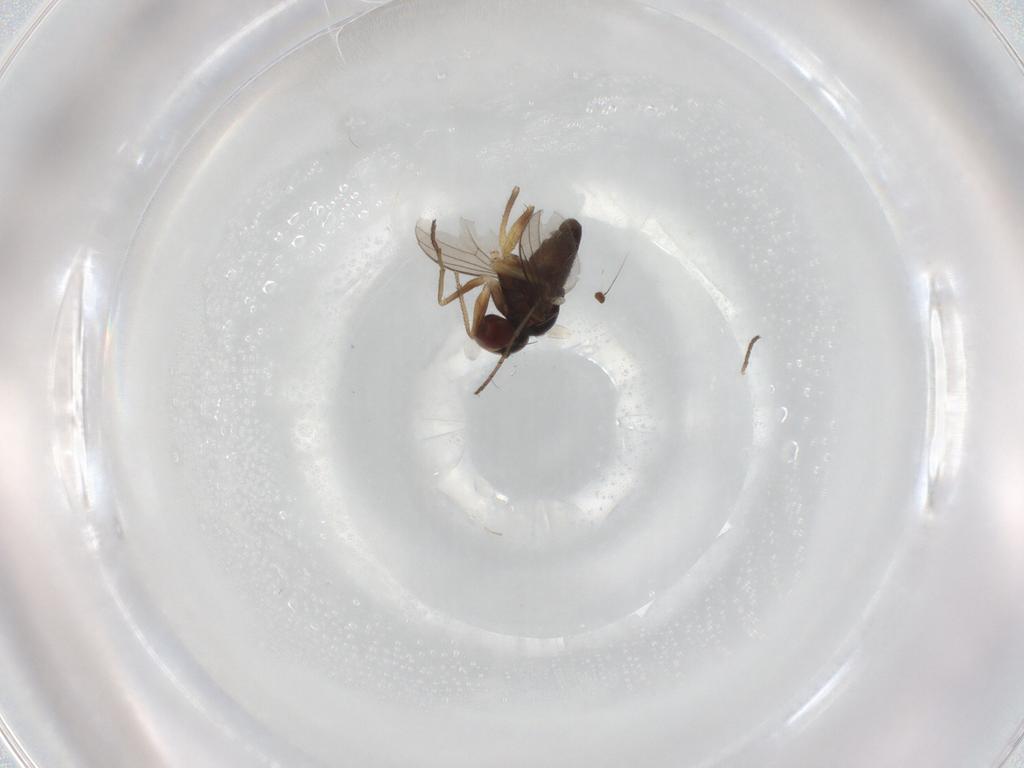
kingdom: Animalia
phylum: Arthropoda
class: Insecta
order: Diptera
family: Dolichopodidae
